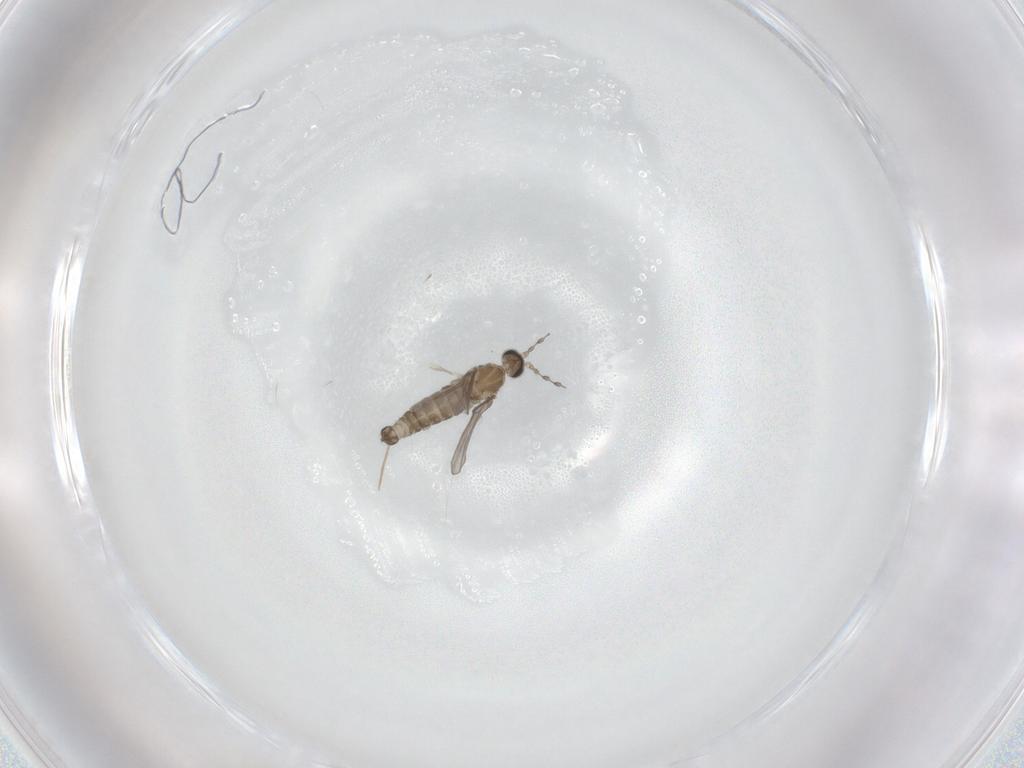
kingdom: Animalia
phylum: Arthropoda
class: Insecta
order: Diptera
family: Cecidomyiidae
